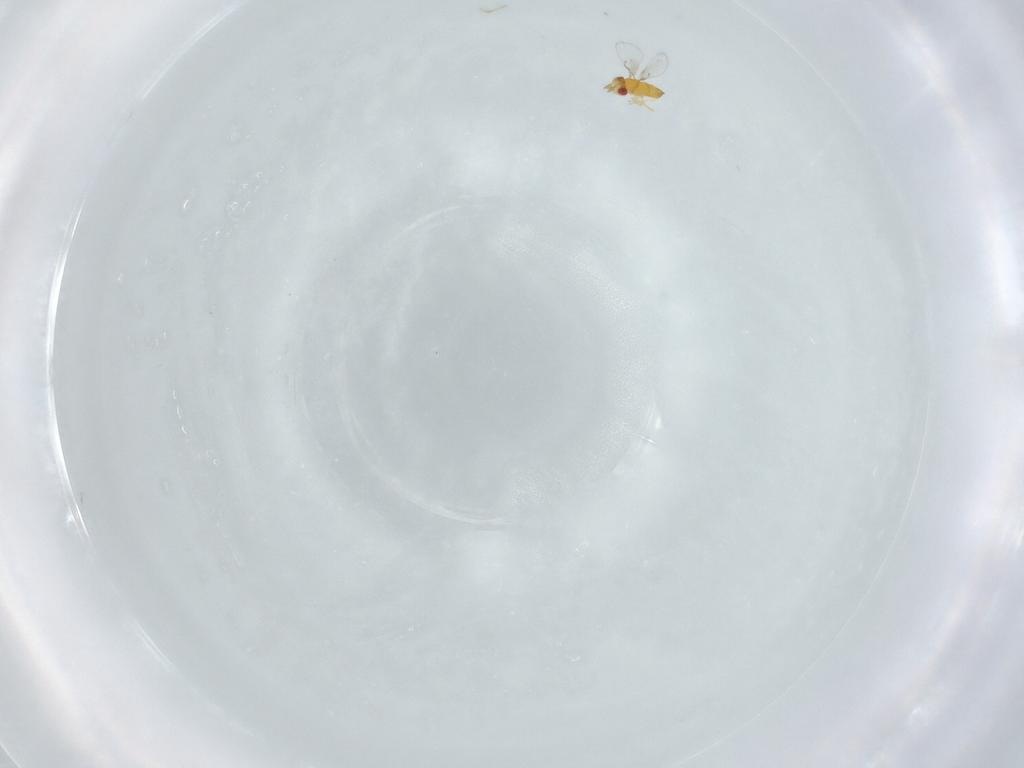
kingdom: Animalia
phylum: Arthropoda
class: Insecta
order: Hymenoptera
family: Trichogrammatidae
